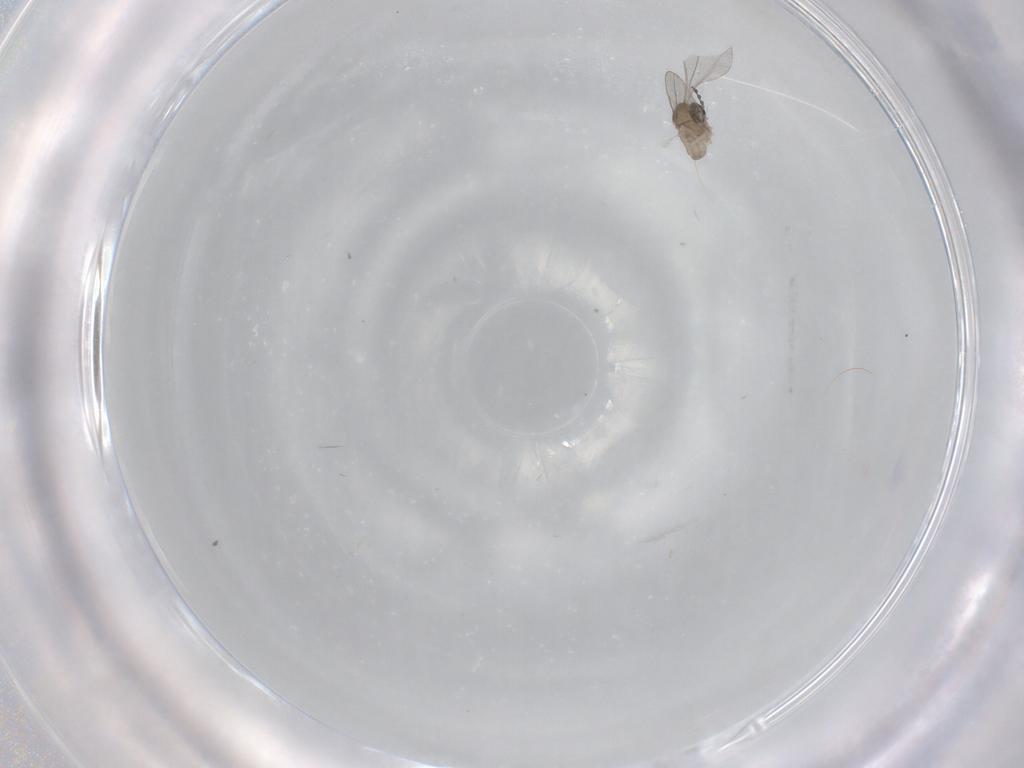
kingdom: Animalia
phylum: Arthropoda
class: Insecta
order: Diptera
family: Cecidomyiidae
